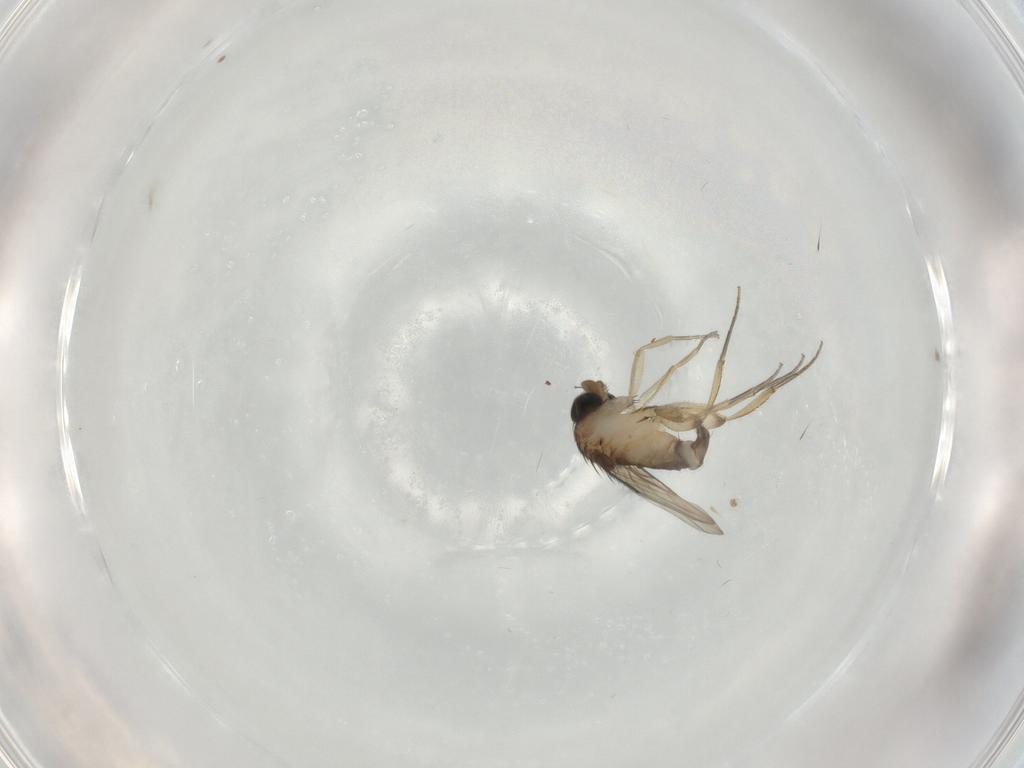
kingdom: Animalia
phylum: Arthropoda
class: Insecta
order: Diptera
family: Phoridae
